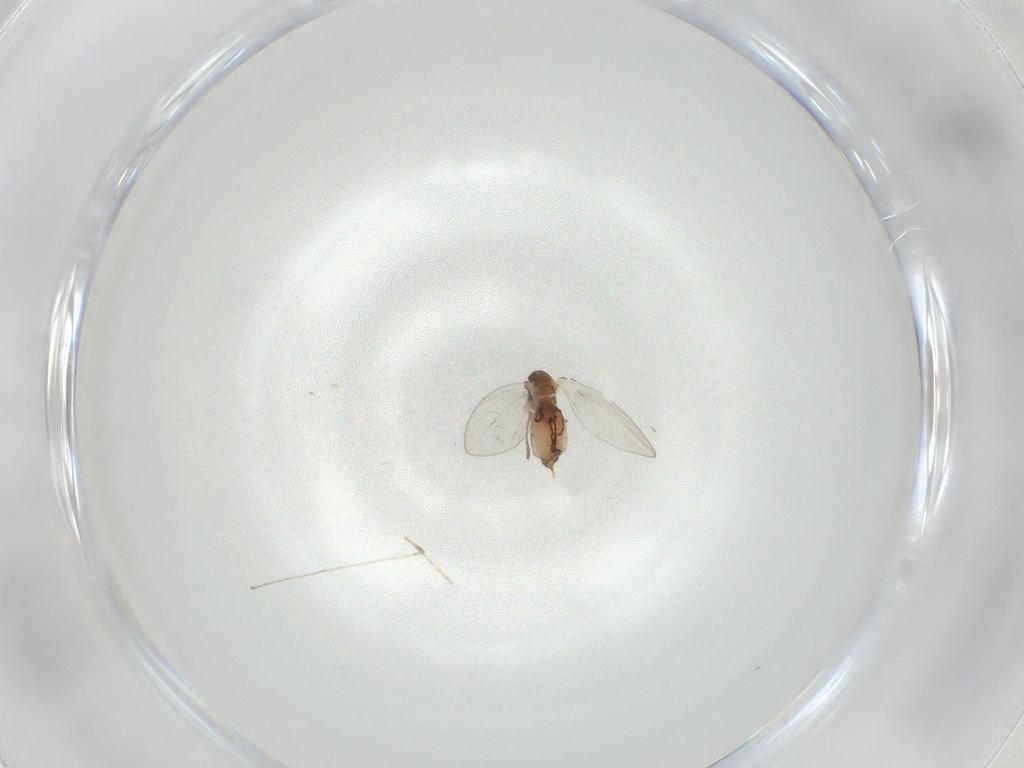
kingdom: Animalia
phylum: Arthropoda
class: Insecta
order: Diptera
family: Psychodidae
